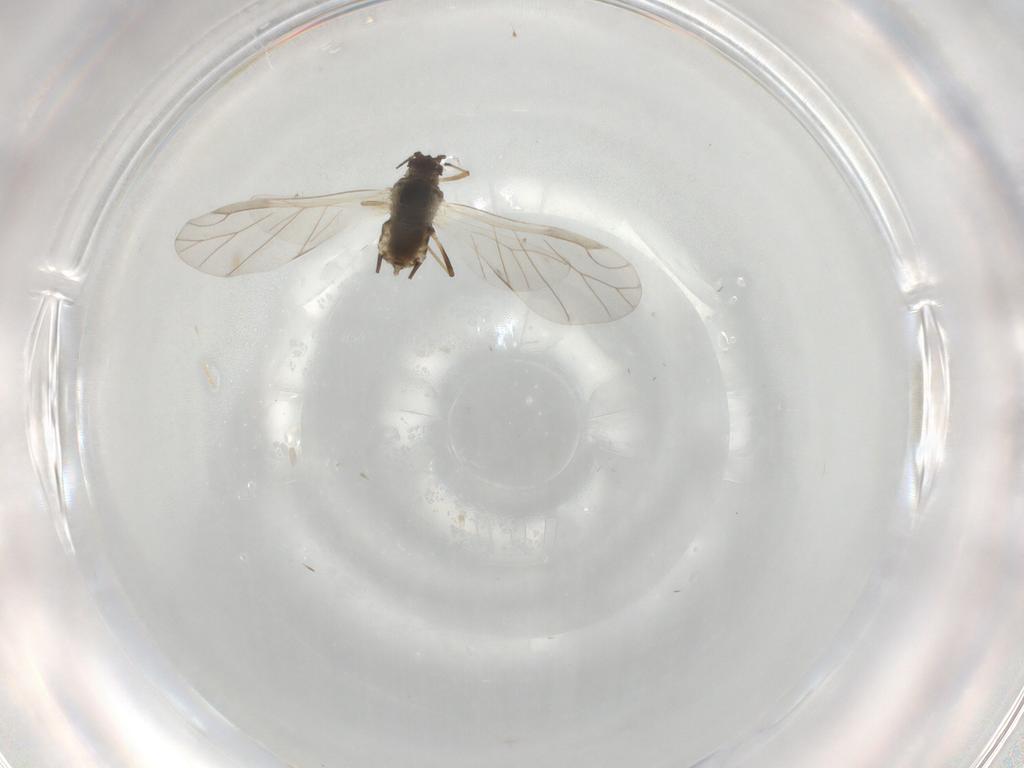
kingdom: Animalia
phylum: Arthropoda
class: Insecta
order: Hemiptera
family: Aphididae
